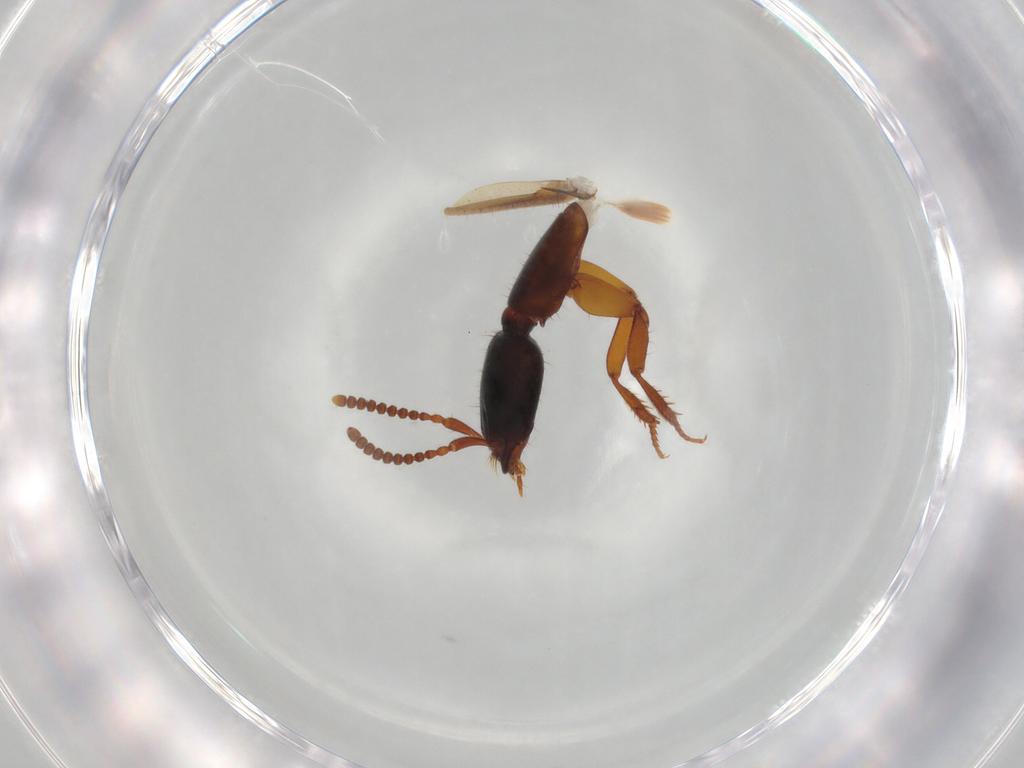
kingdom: Animalia
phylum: Arthropoda
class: Insecta
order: Coleoptera
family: Staphylinidae
